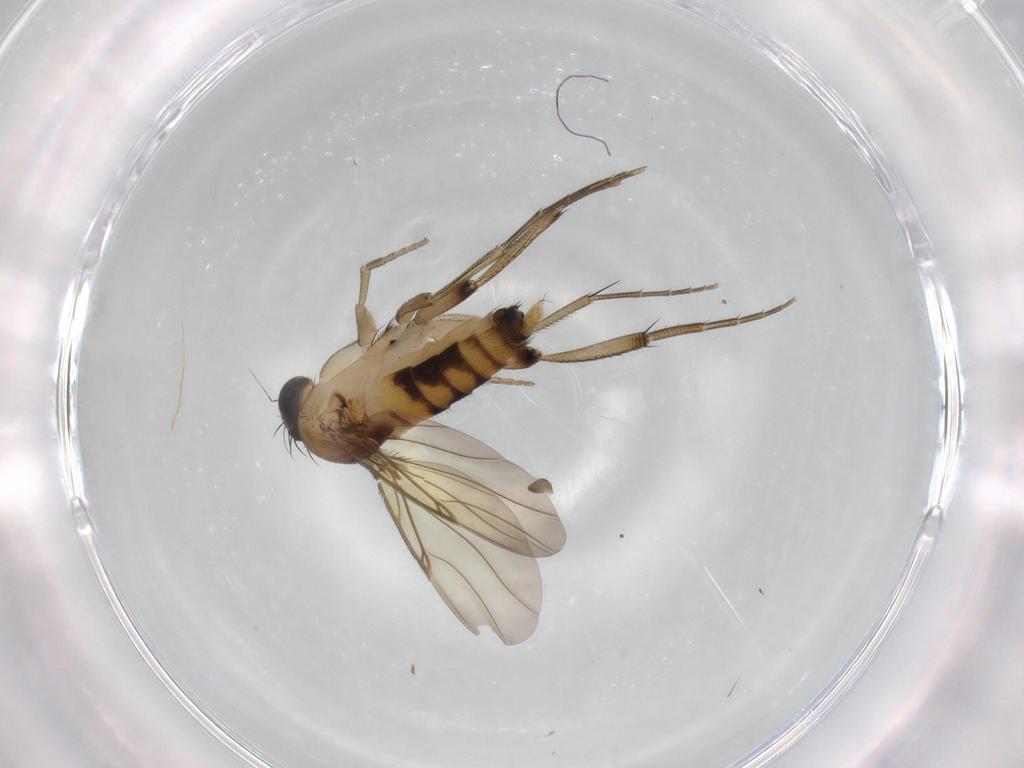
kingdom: Animalia
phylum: Arthropoda
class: Insecta
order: Diptera
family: Phoridae
